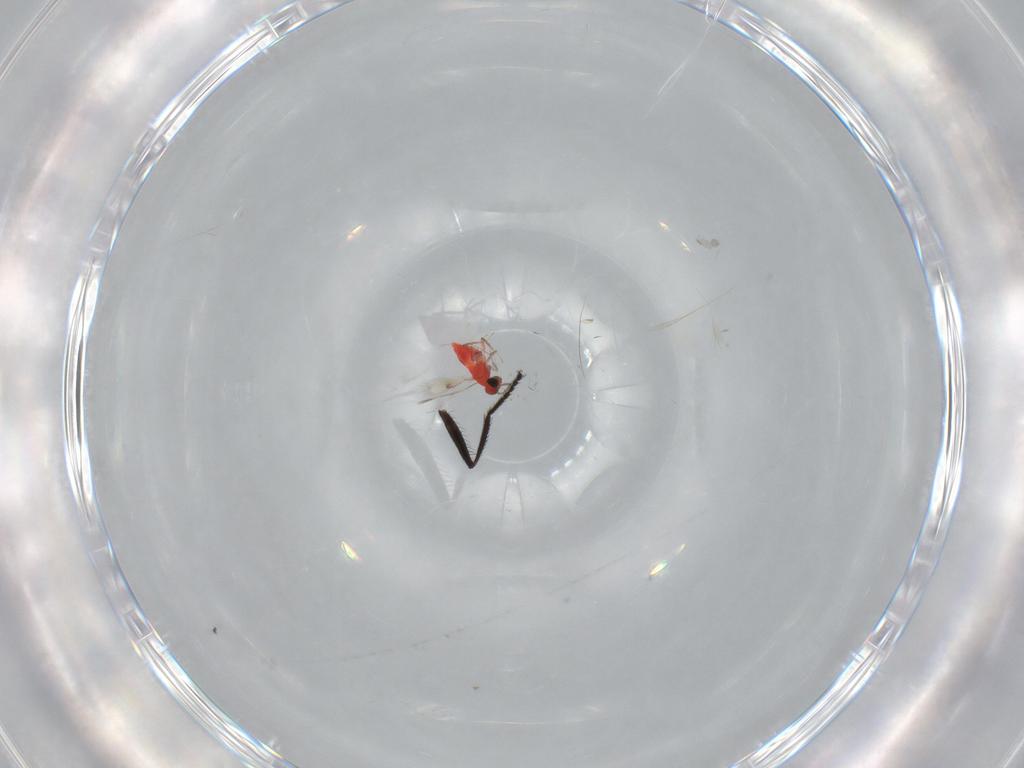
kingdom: Animalia
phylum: Arthropoda
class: Insecta
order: Hymenoptera
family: Trichogrammatidae
